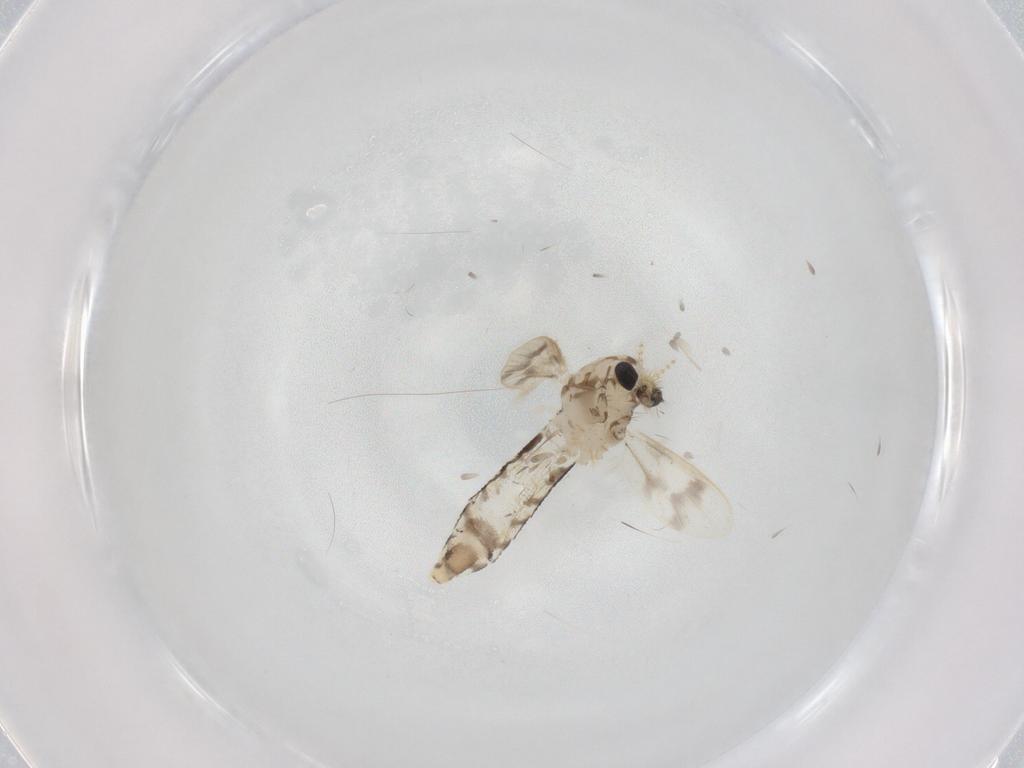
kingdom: Animalia
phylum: Arthropoda
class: Insecta
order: Diptera
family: Corethrellidae
